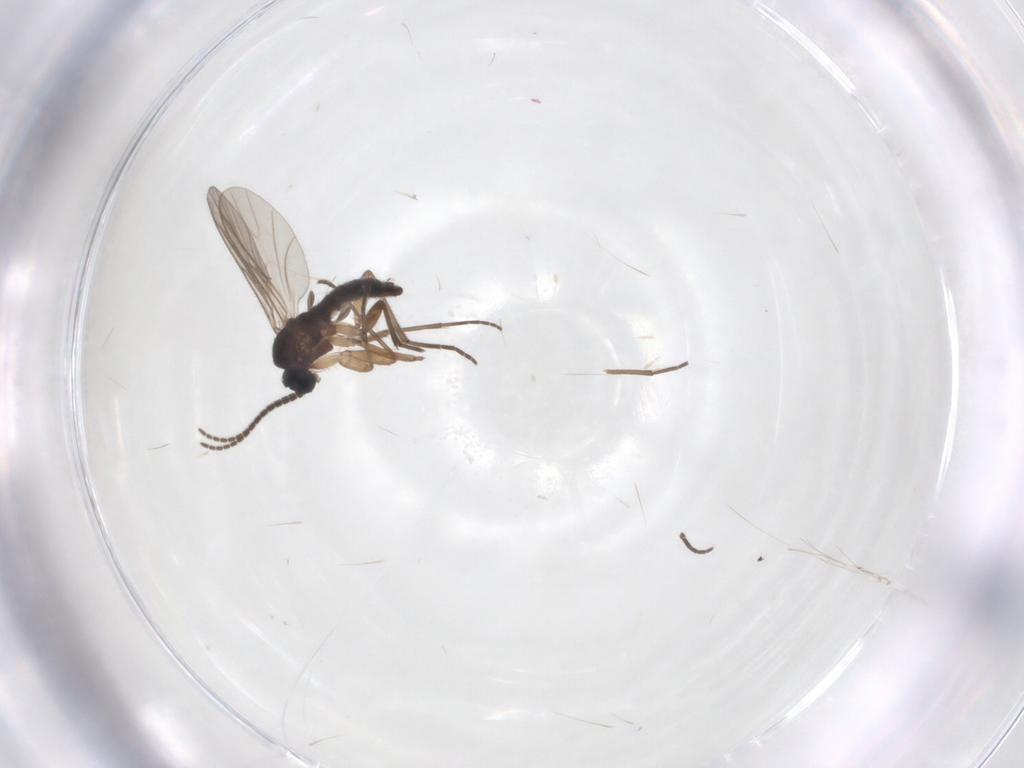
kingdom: Animalia
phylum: Arthropoda
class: Insecta
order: Diptera
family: Sciaridae
